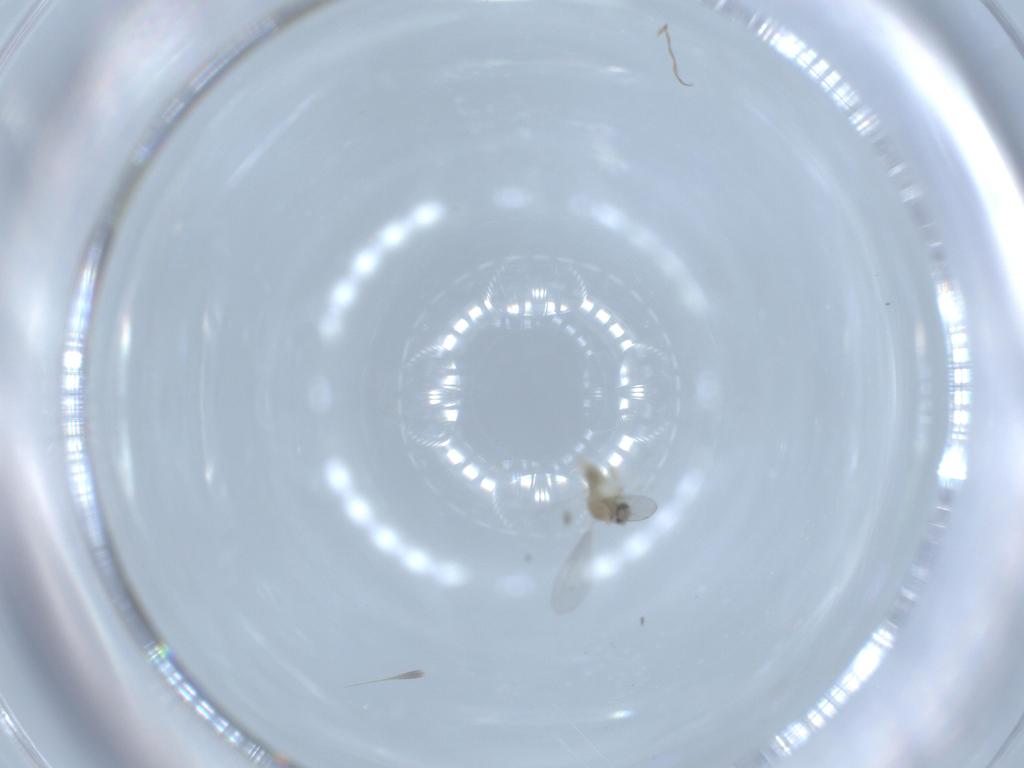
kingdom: Animalia
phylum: Arthropoda
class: Insecta
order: Diptera
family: Cecidomyiidae
